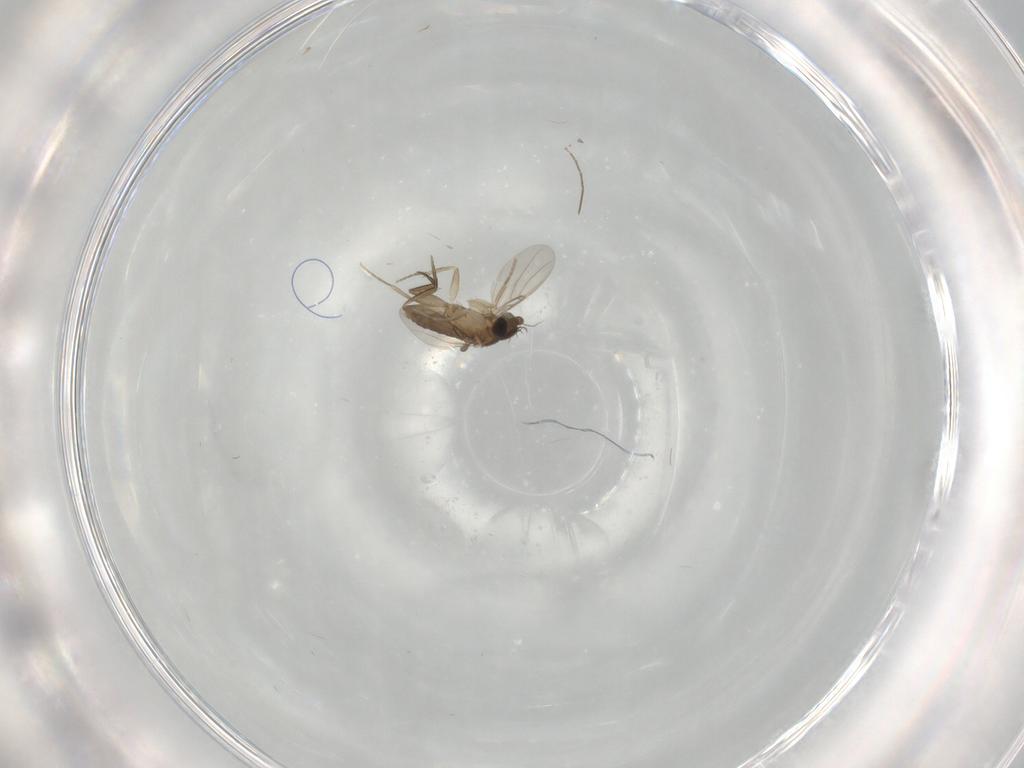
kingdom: Animalia
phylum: Arthropoda
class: Insecta
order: Diptera
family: Phoridae
